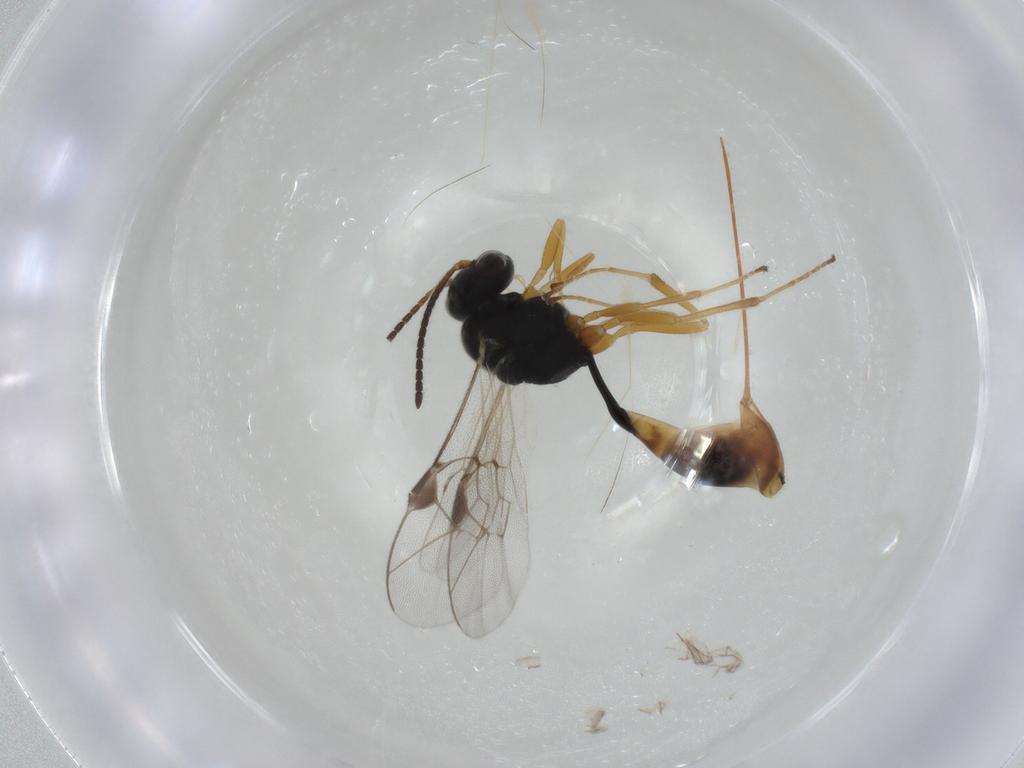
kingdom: Animalia
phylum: Arthropoda
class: Insecta
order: Hymenoptera
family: Ichneumonidae
